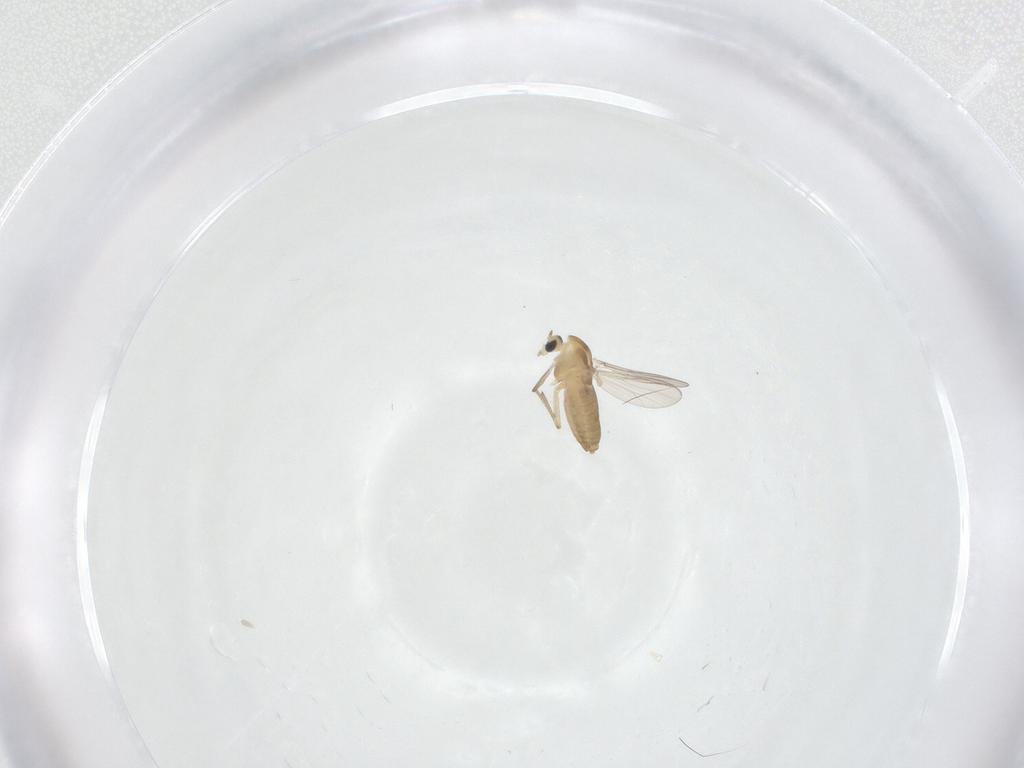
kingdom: Animalia
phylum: Arthropoda
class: Insecta
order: Diptera
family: Chironomidae
